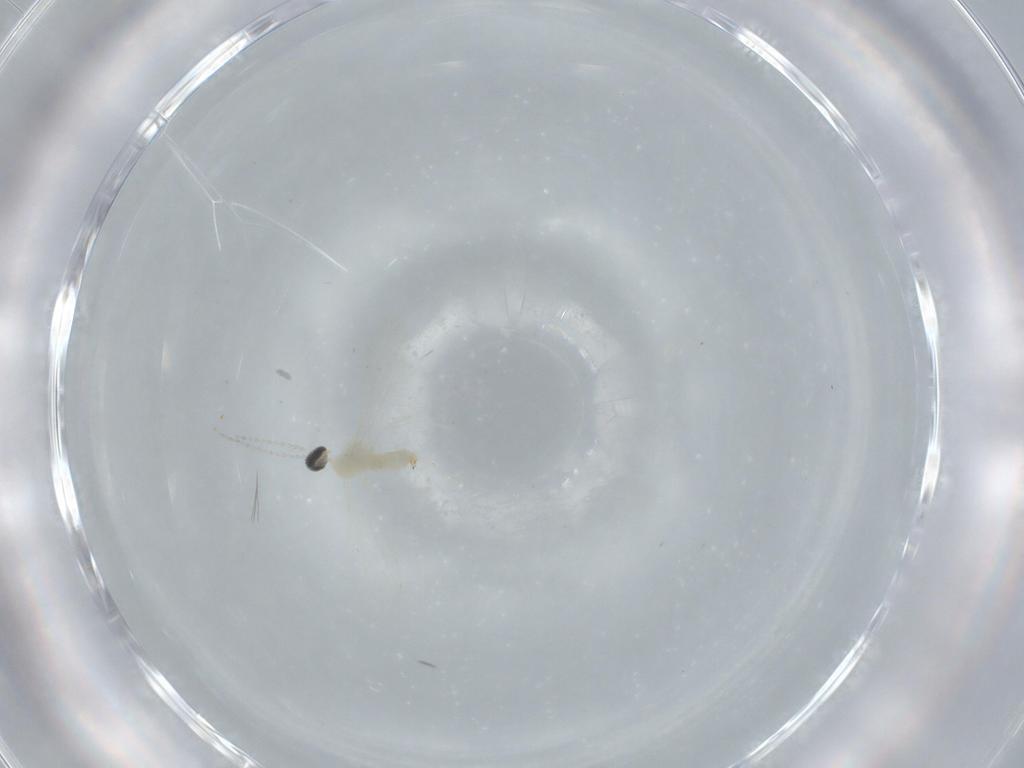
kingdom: Animalia
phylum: Arthropoda
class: Insecta
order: Diptera
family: Cecidomyiidae
